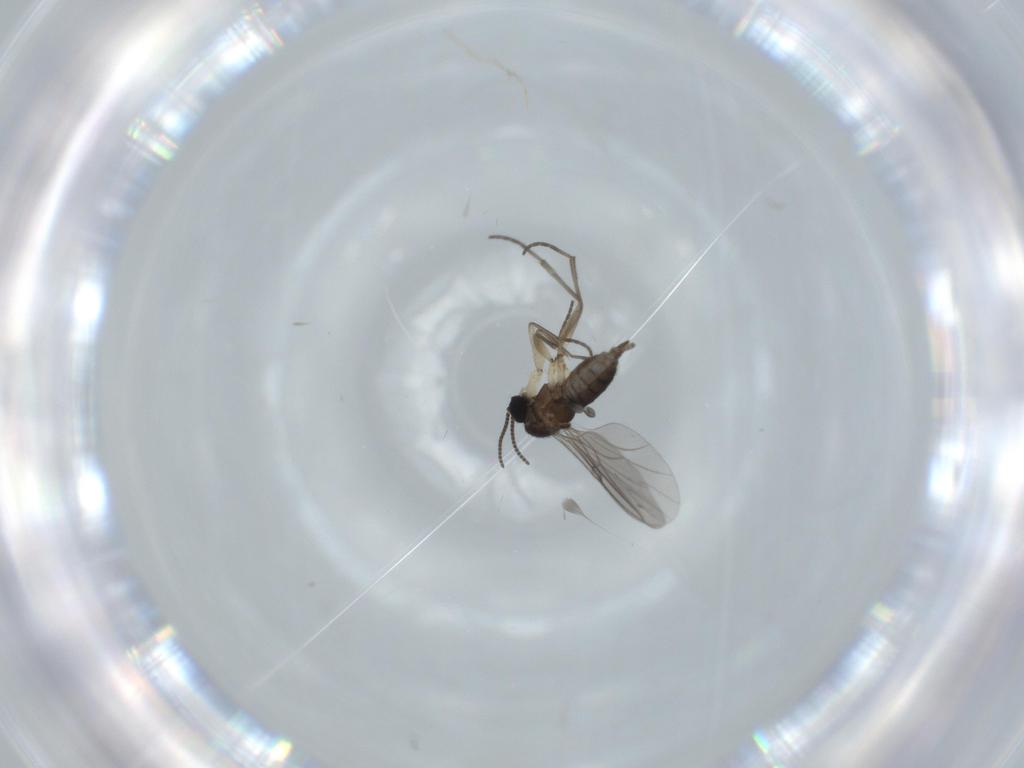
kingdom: Animalia
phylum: Arthropoda
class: Insecta
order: Diptera
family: Sciaridae
